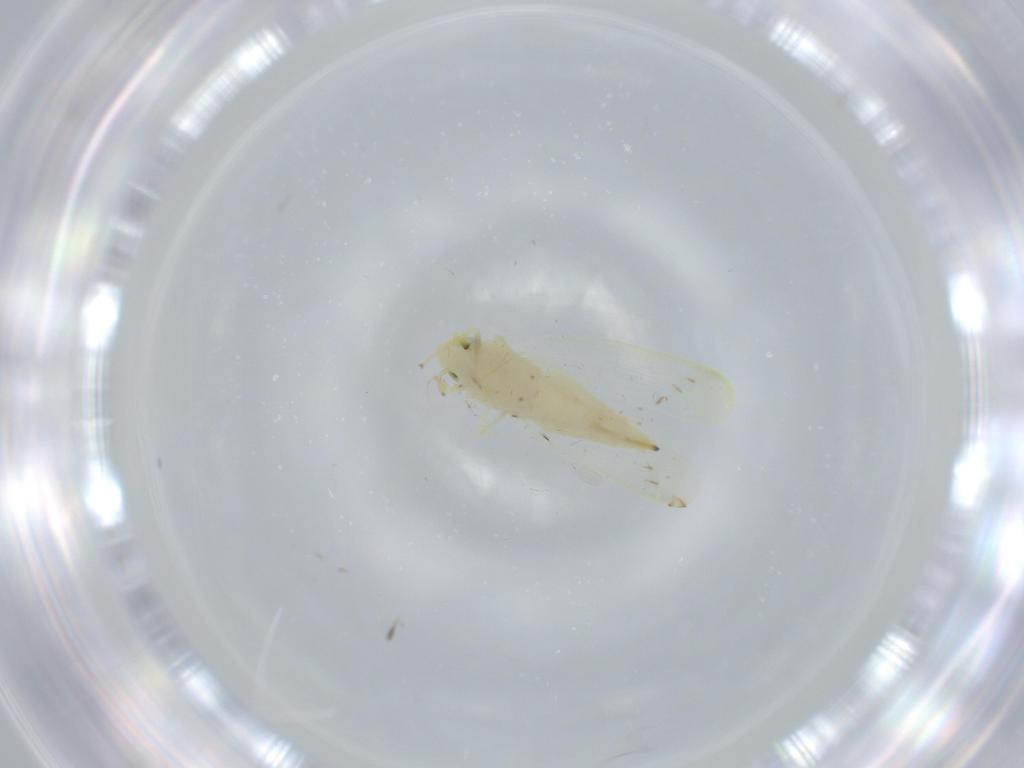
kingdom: Animalia
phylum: Arthropoda
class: Insecta
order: Hemiptera
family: Cicadellidae
